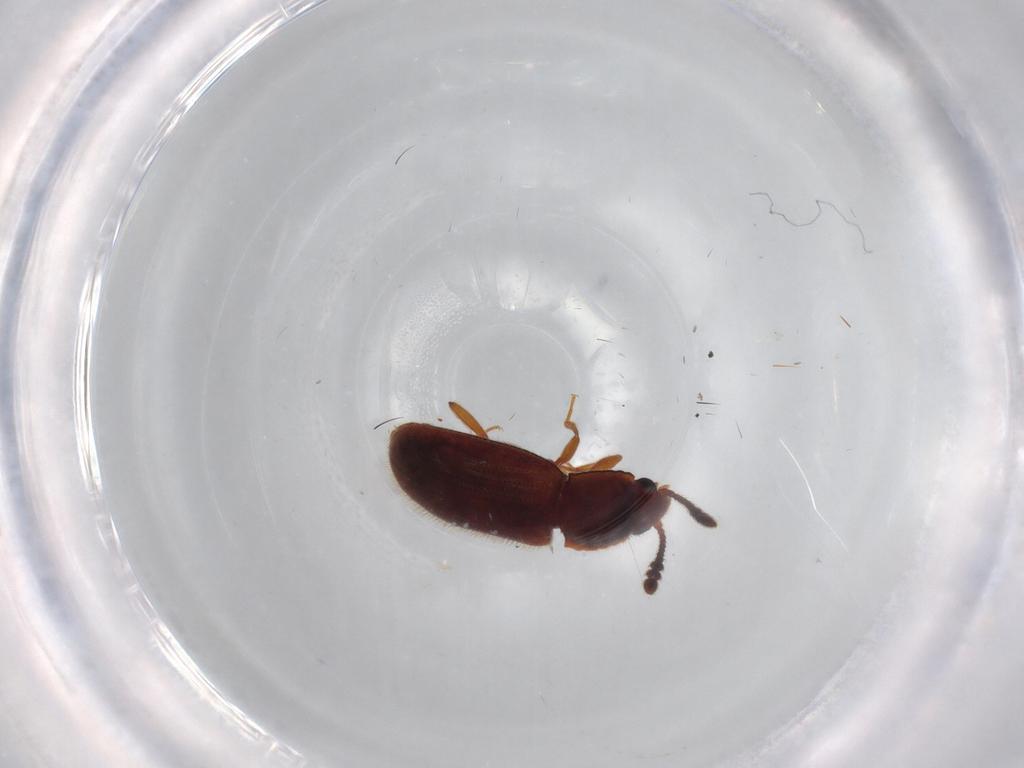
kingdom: Animalia
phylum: Arthropoda
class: Insecta
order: Coleoptera
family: Erotylidae
